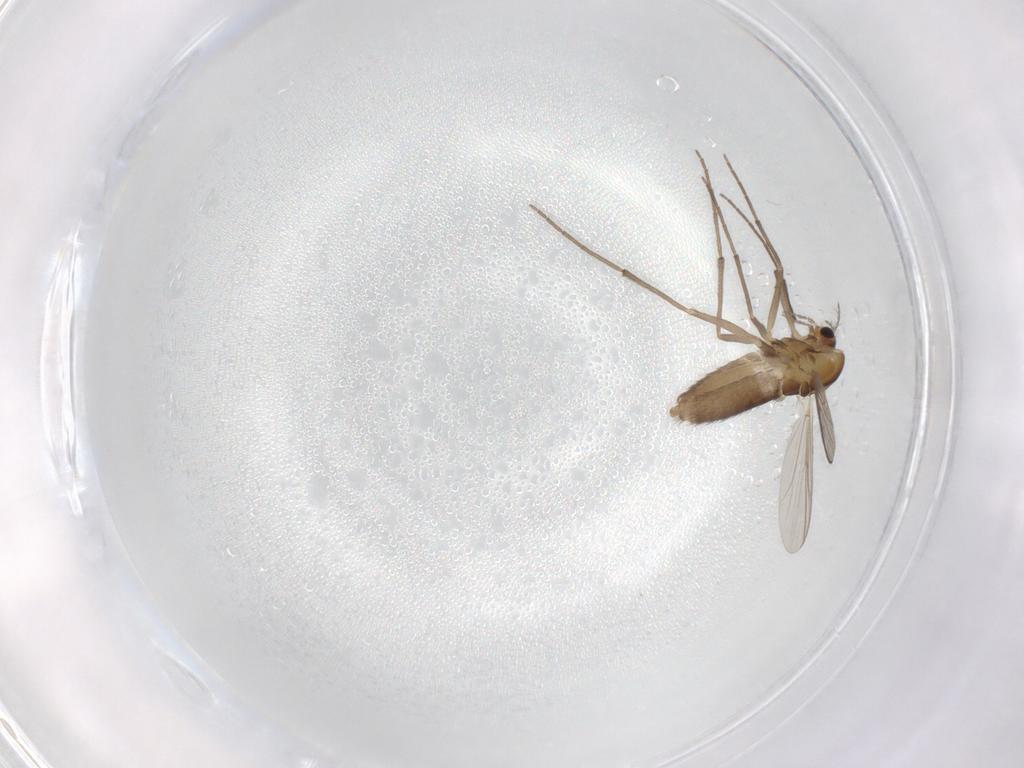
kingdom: Animalia
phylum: Arthropoda
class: Insecta
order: Diptera
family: Chironomidae
